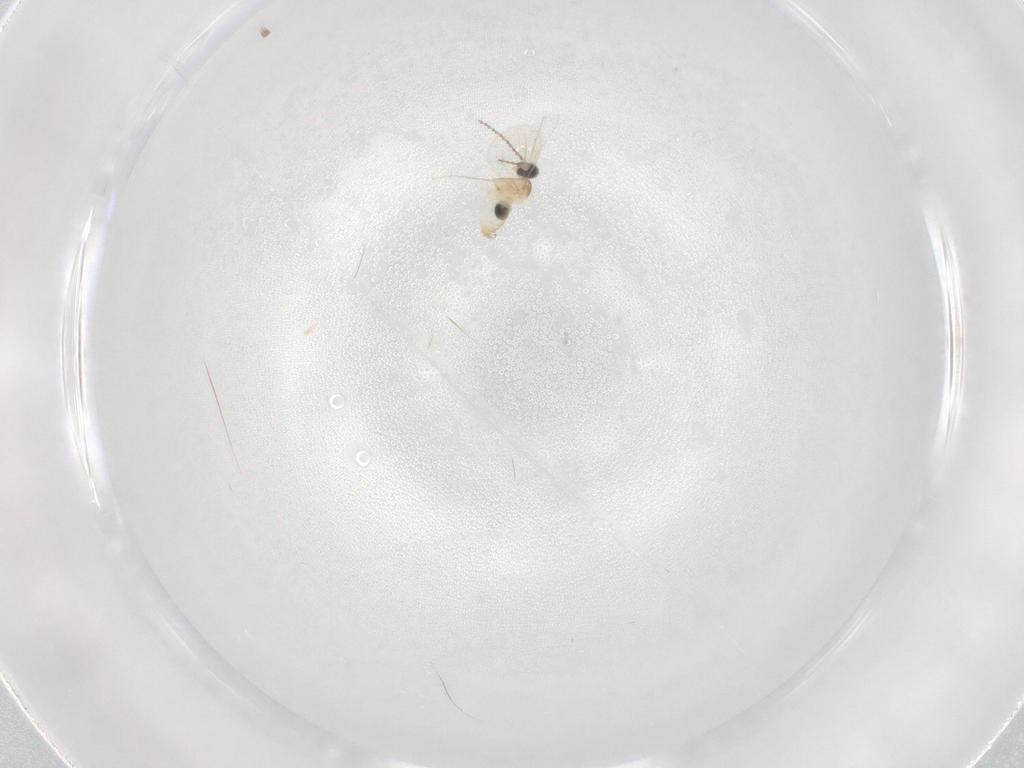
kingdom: Animalia
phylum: Arthropoda
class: Insecta
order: Diptera
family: Cecidomyiidae
